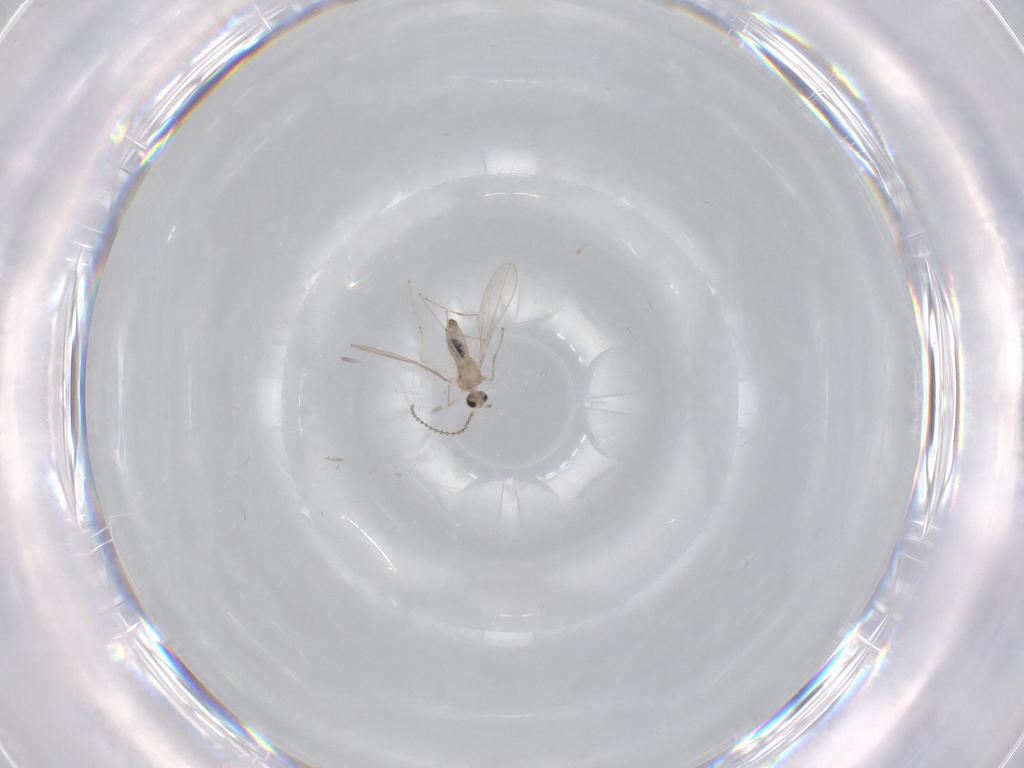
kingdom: Animalia
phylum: Arthropoda
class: Insecta
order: Diptera
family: Cecidomyiidae
